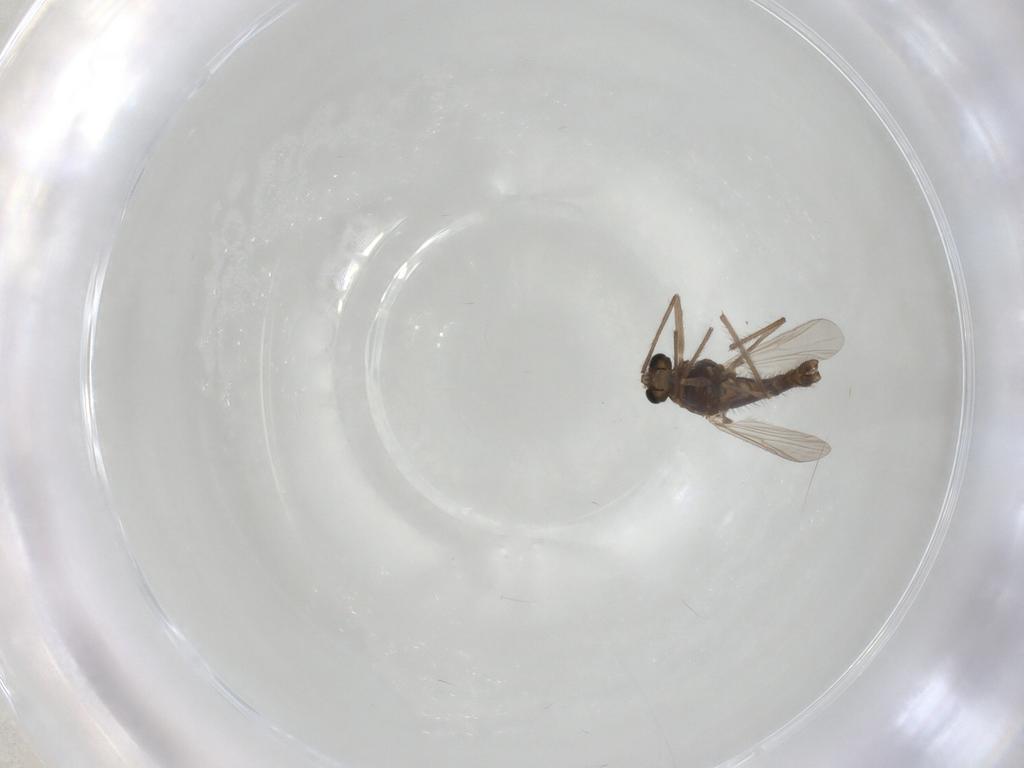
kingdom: Animalia
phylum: Arthropoda
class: Insecta
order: Diptera
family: Chironomidae
